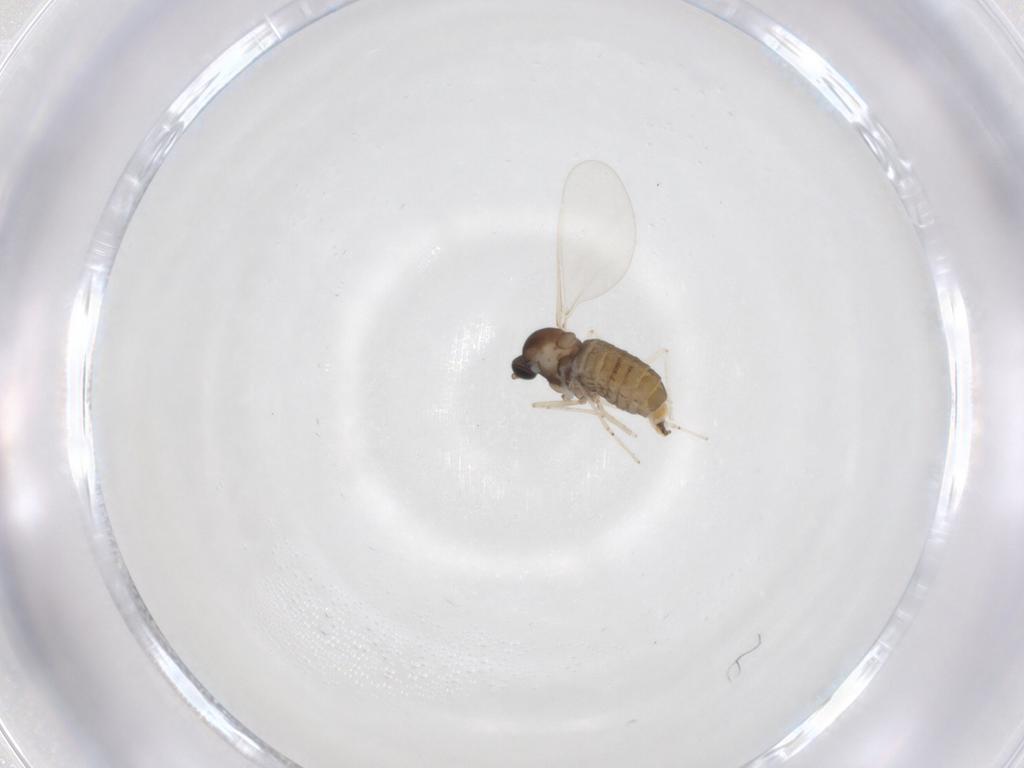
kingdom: Animalia
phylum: Arthropoda
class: Insecta
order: Diptera
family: Cecidomyiidae
